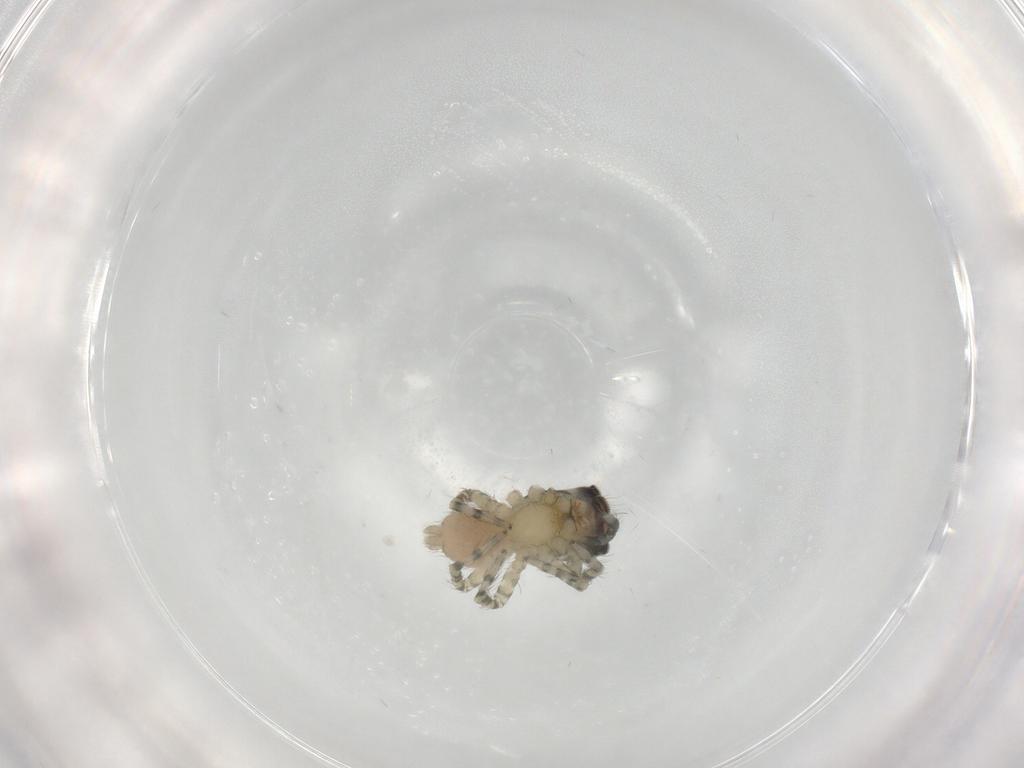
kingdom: Animalia
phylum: Arthropoda
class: Arachnida
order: Araneae
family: Salticidae
